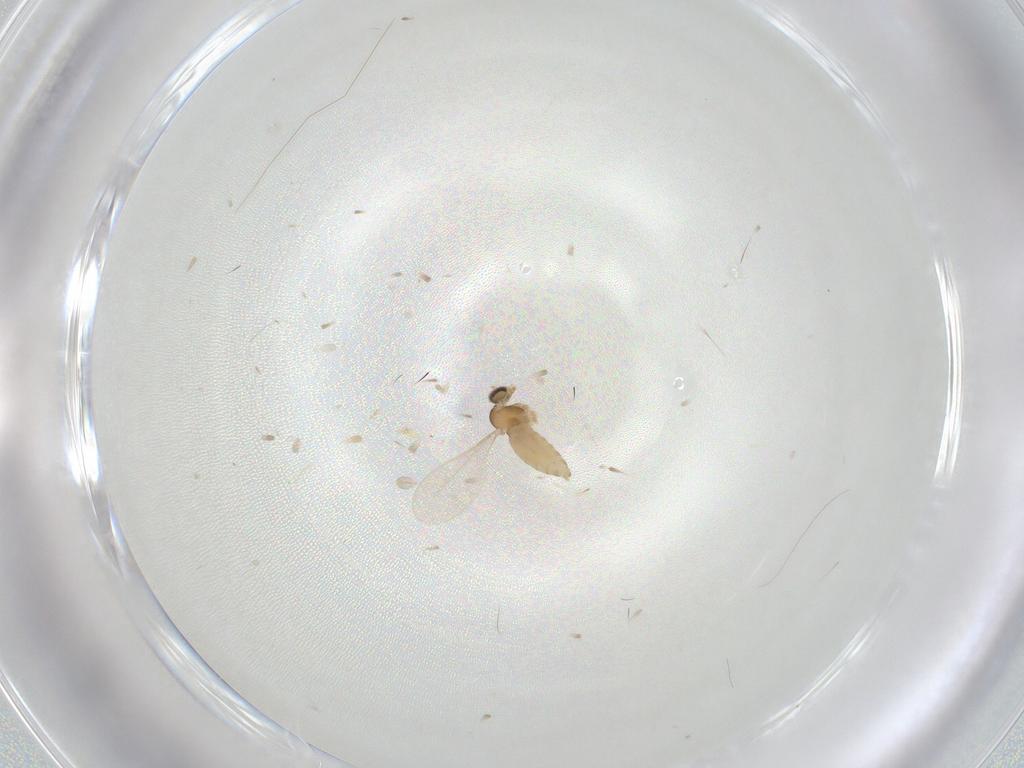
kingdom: Animalia
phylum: Arthropoda
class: Insecta
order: Diptera
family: Cecidomyiidae
